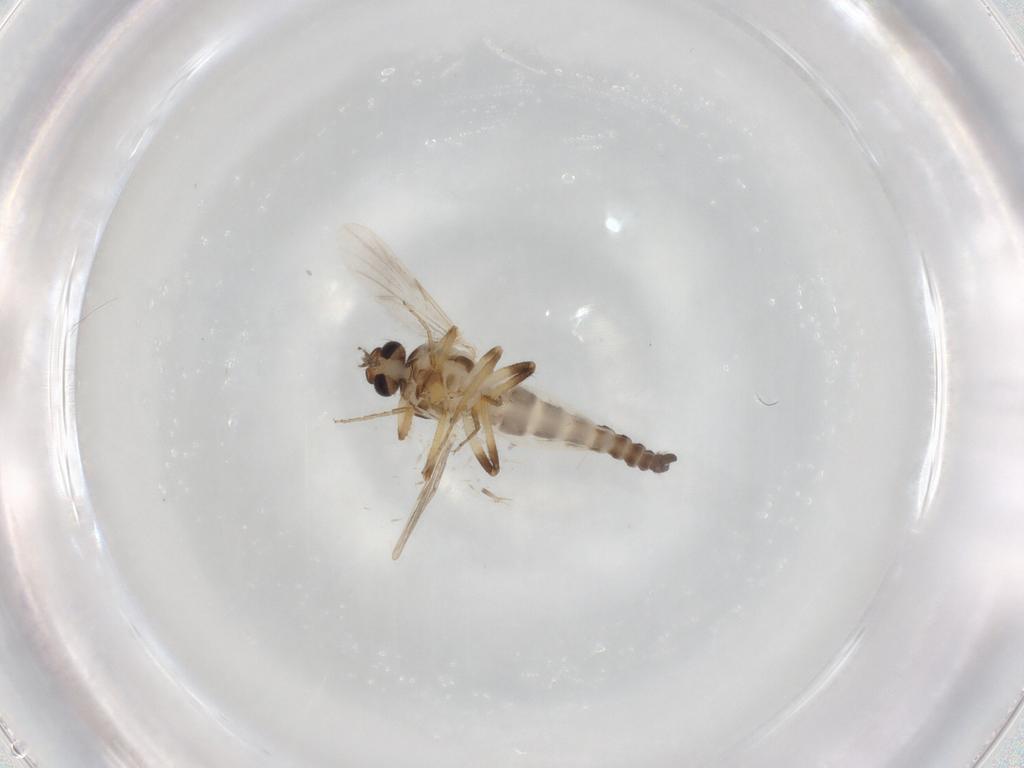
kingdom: Animalia
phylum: Arthropoda
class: Insecta
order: Diptera
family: Ceratopogonidae
